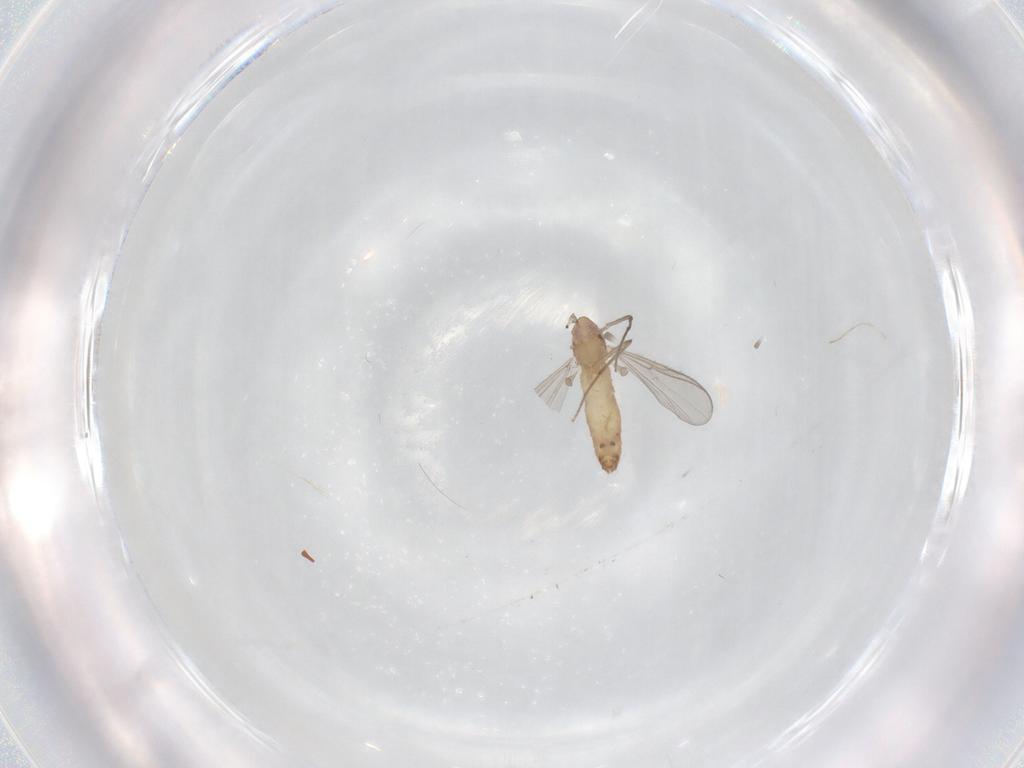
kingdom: Animalia
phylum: Arthropoda
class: Insecta
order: Diptera
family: Chironomidae
